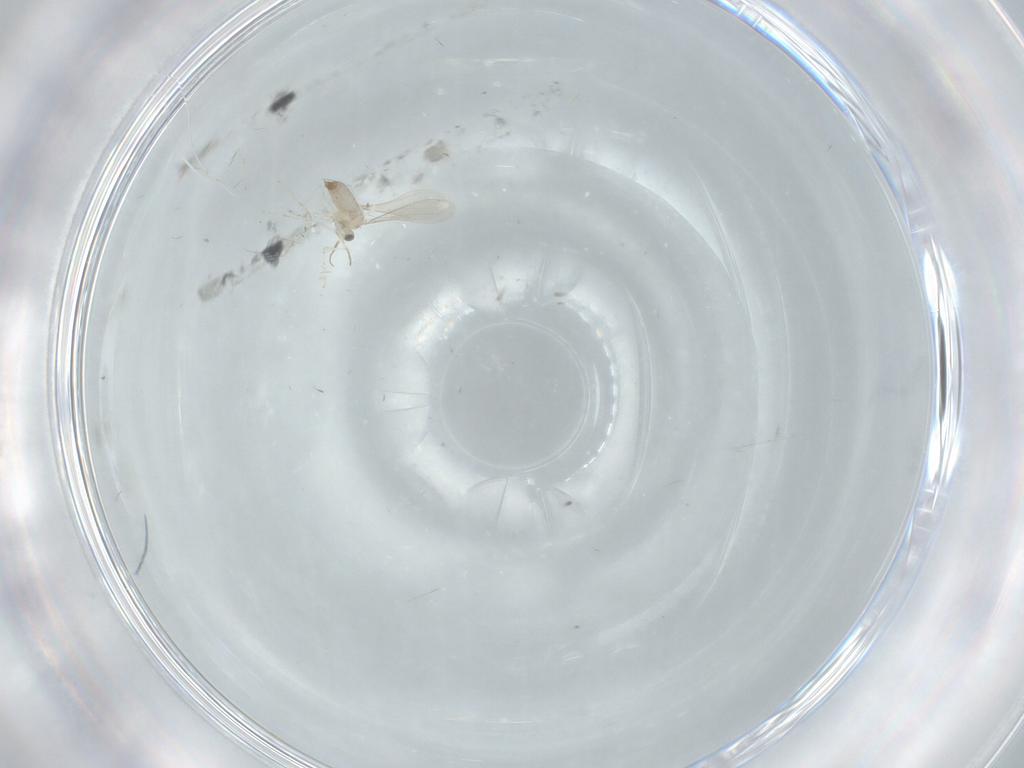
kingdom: Animalia
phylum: Arthropoda
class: Insecta
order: Diptera
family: Cecidomyiidae
